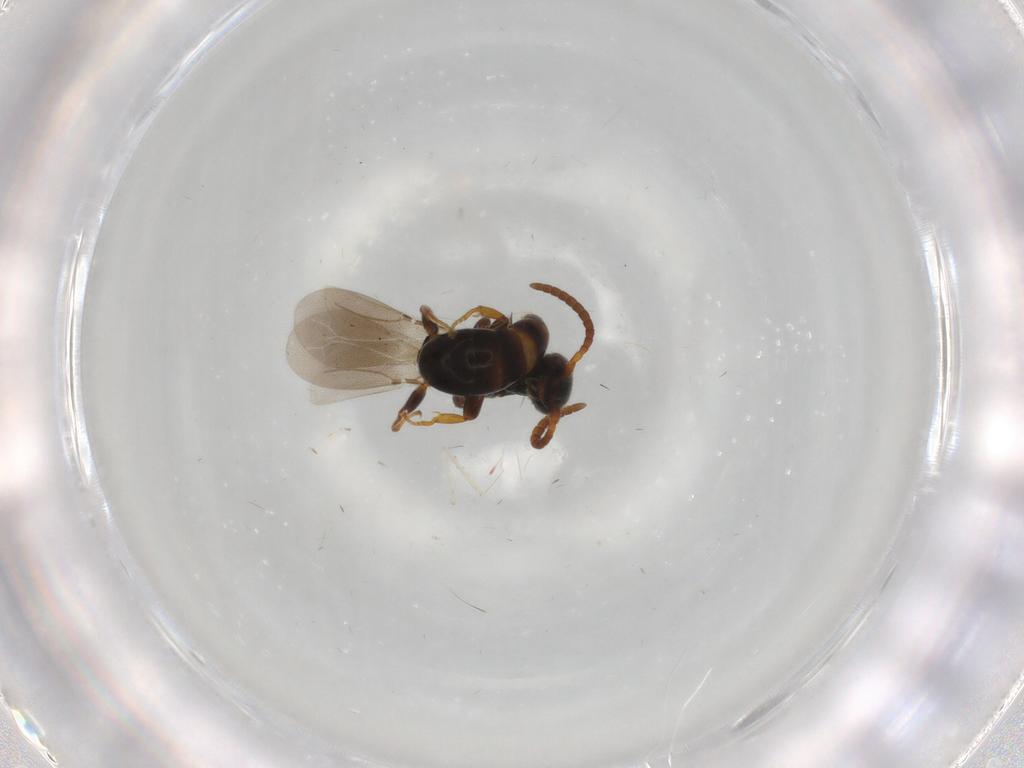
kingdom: Animalia
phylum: Arthropoda
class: Insecta
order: Hymenoptera
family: Bethylidae
